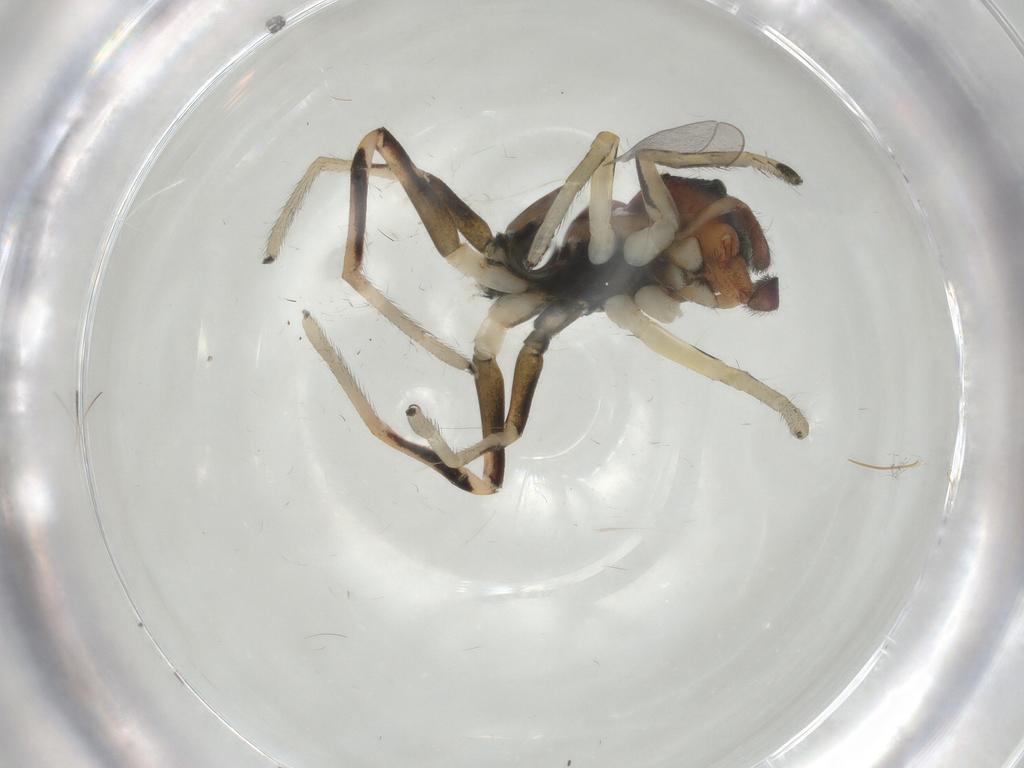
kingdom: Animalia
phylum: Arthropoda
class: Arachnida
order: Araneae
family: Salticidae
